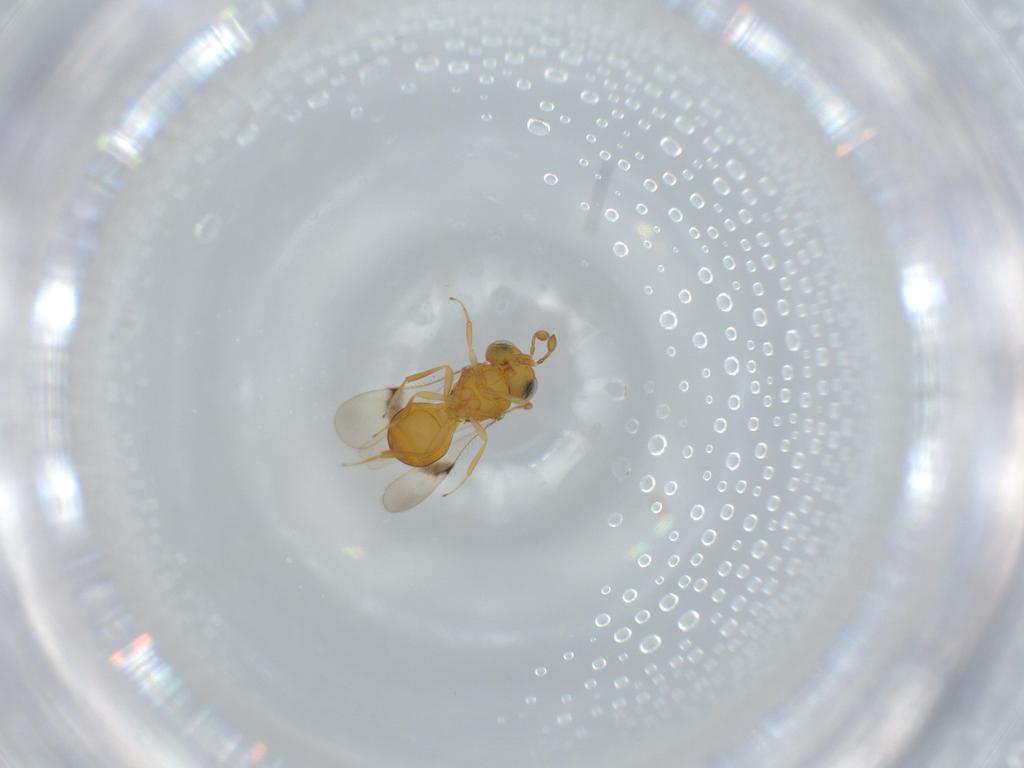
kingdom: Animalia
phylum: Arthropoda
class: Insecta
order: Hymenoptera
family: Scelionidae
